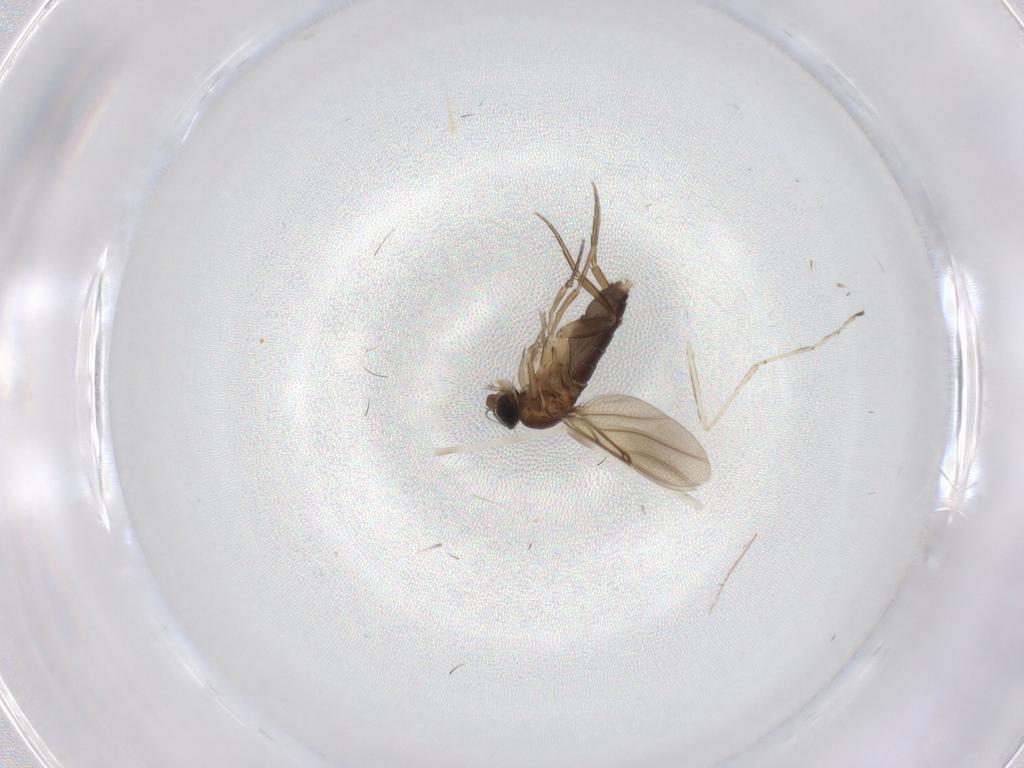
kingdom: Animalia
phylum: Arthropoda
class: Insecta
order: Diptera
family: Phoridae
